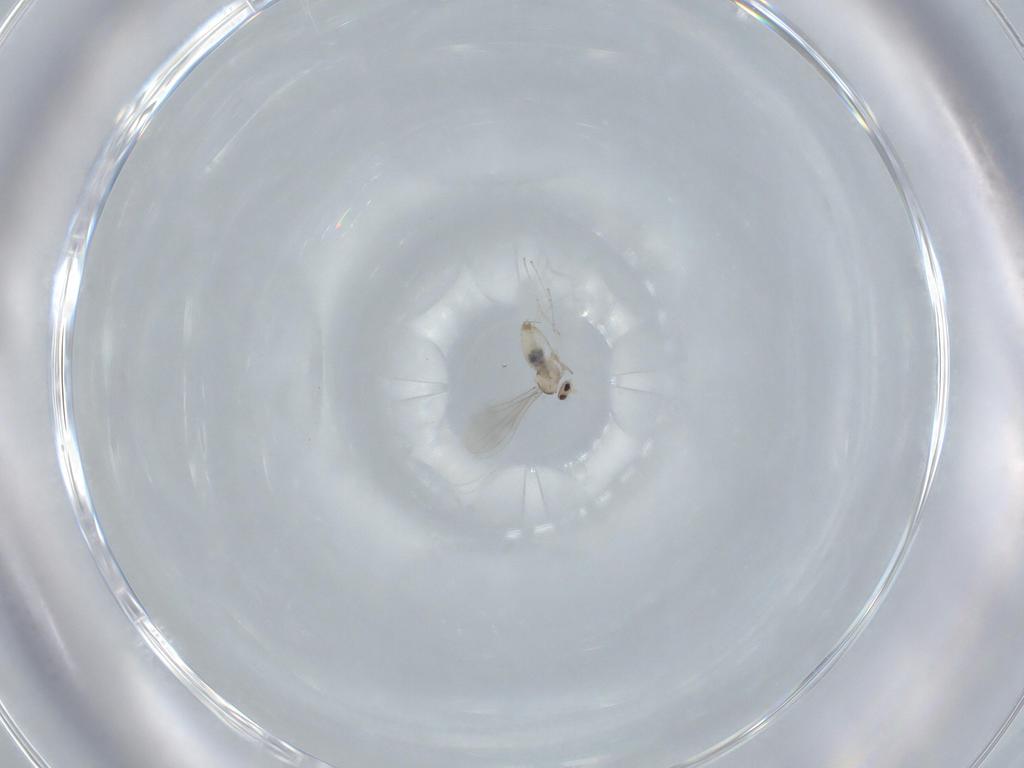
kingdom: Animalia
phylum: Arthropoda
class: Insecta
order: Diptera
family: Cecidomyiidae
